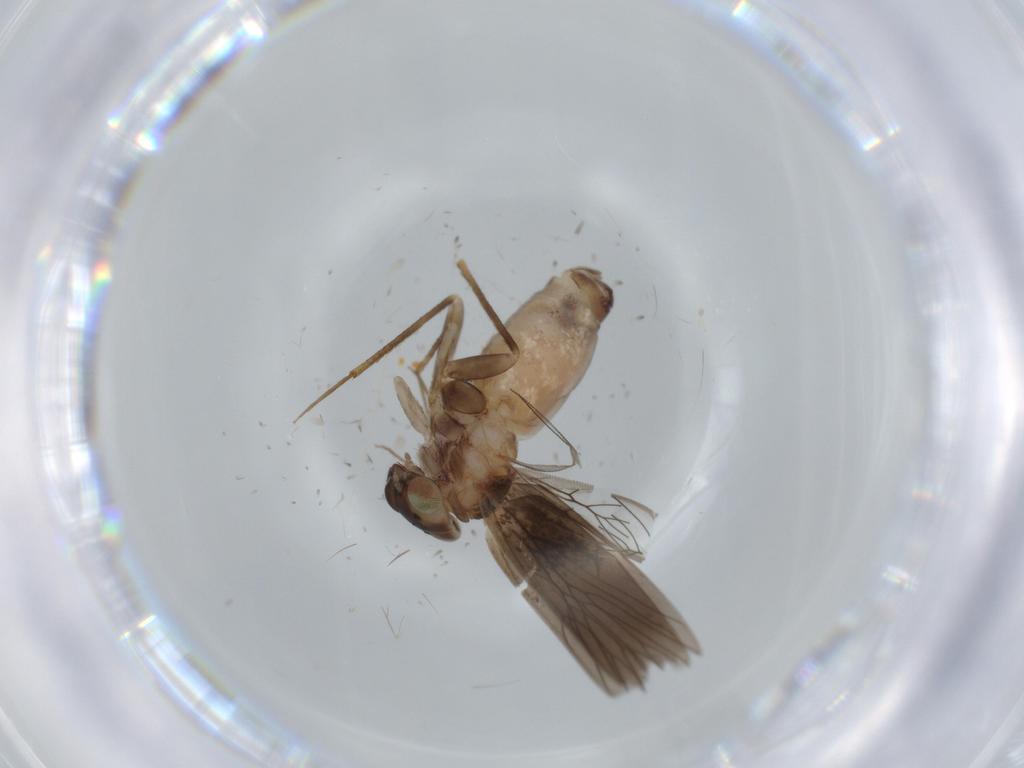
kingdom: Animalia
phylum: Arthropoda
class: Insecta
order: Psocodea
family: Lepidopsocidae
